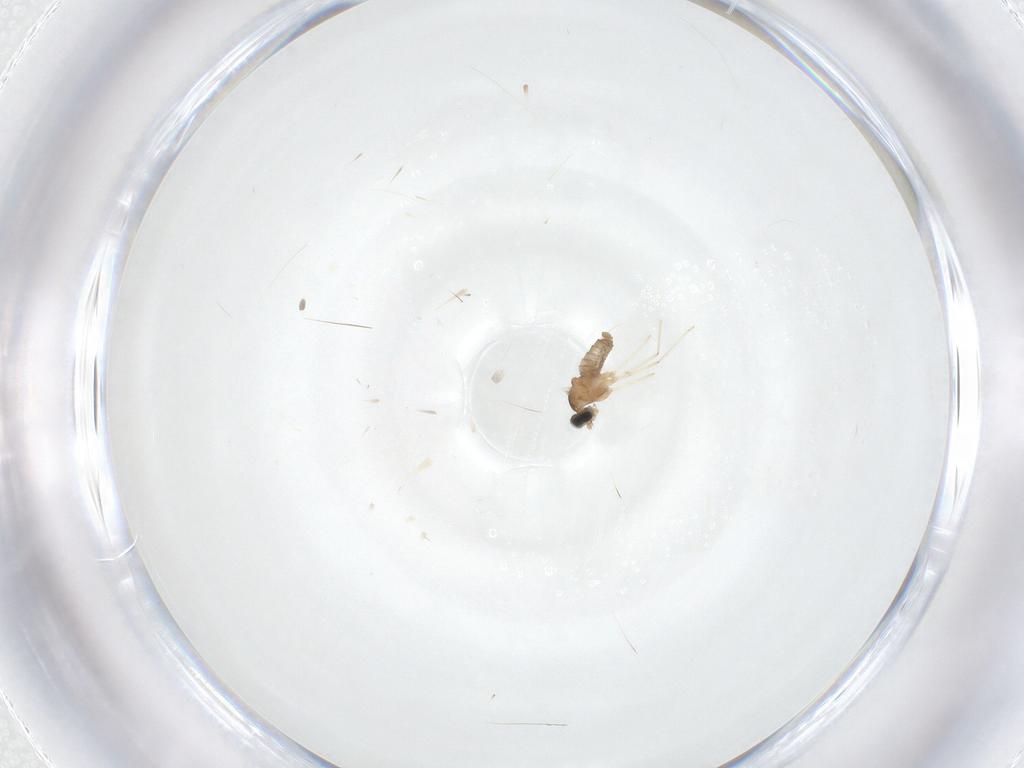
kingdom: Animalia
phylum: Arthropoda
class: Insecta
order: Diptera
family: Cecidomyiidae
